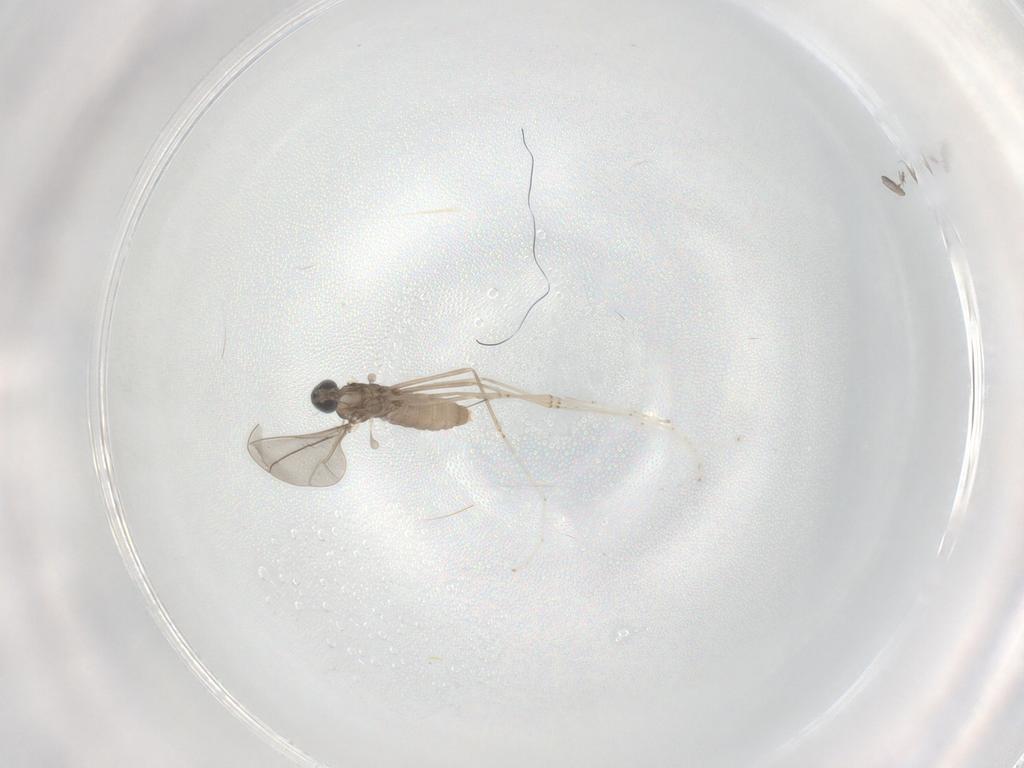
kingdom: Animalia
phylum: Arthropoda
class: Insecta
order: Diptera
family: Cecidomyiidae
